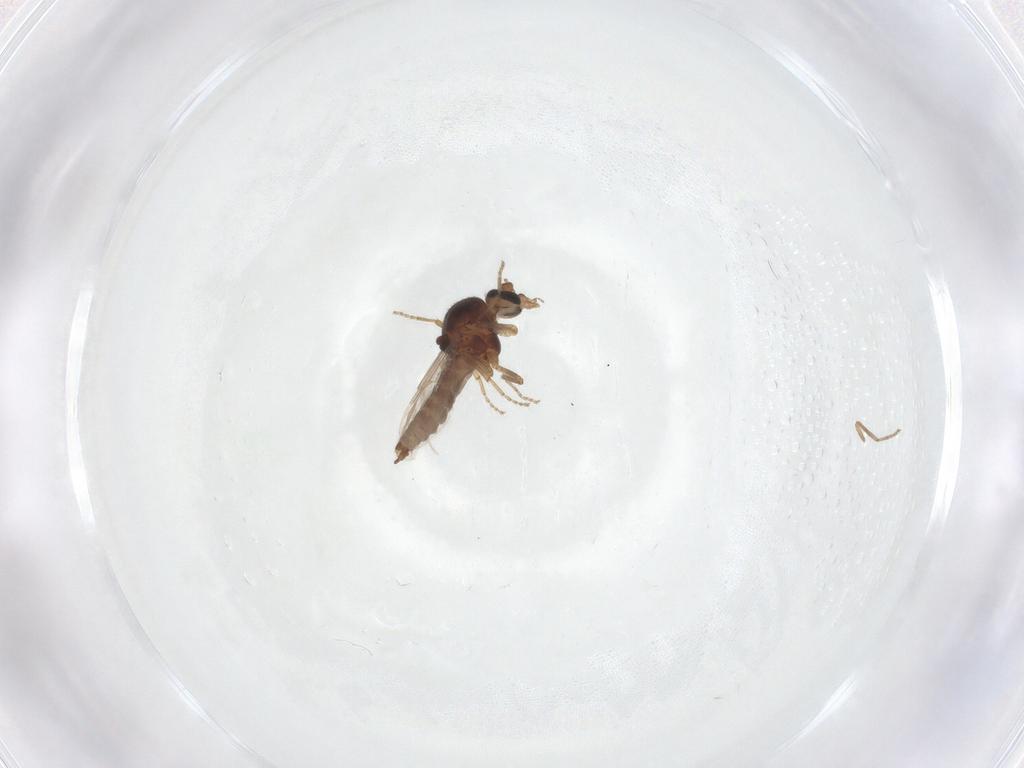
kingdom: Animalia
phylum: Arthropoda
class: Insecta
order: Diptera
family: Ceratopogonidae
